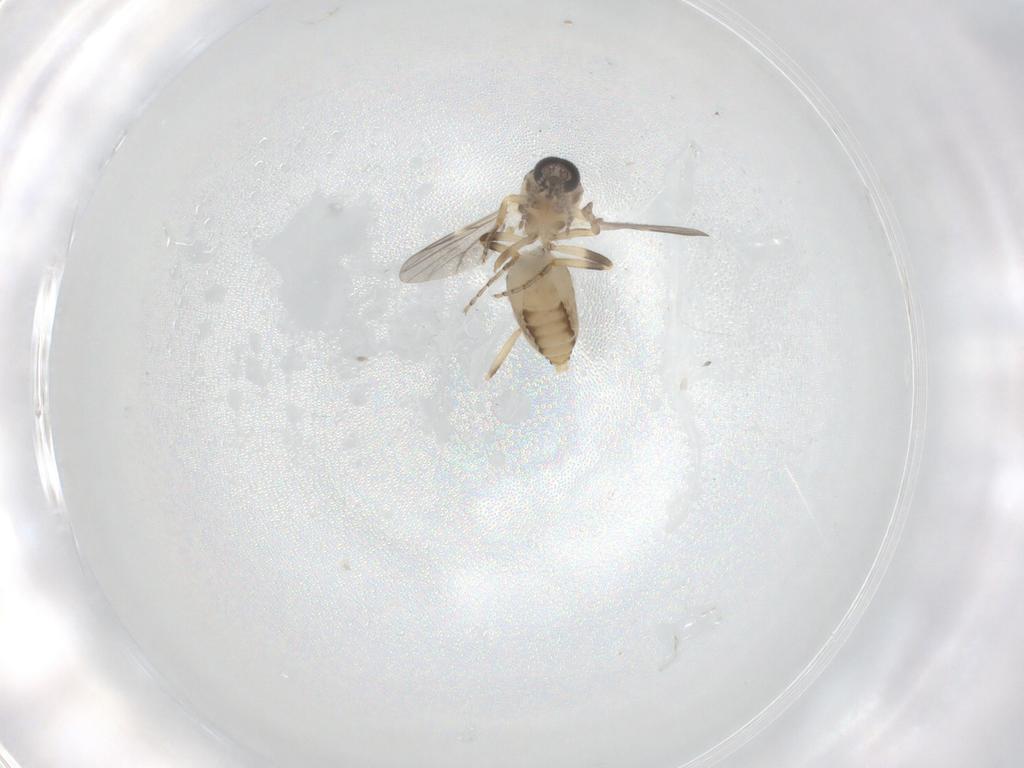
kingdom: Animalia
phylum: Arthropoda
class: Insecta
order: Diptera
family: Ceratopogonidae
